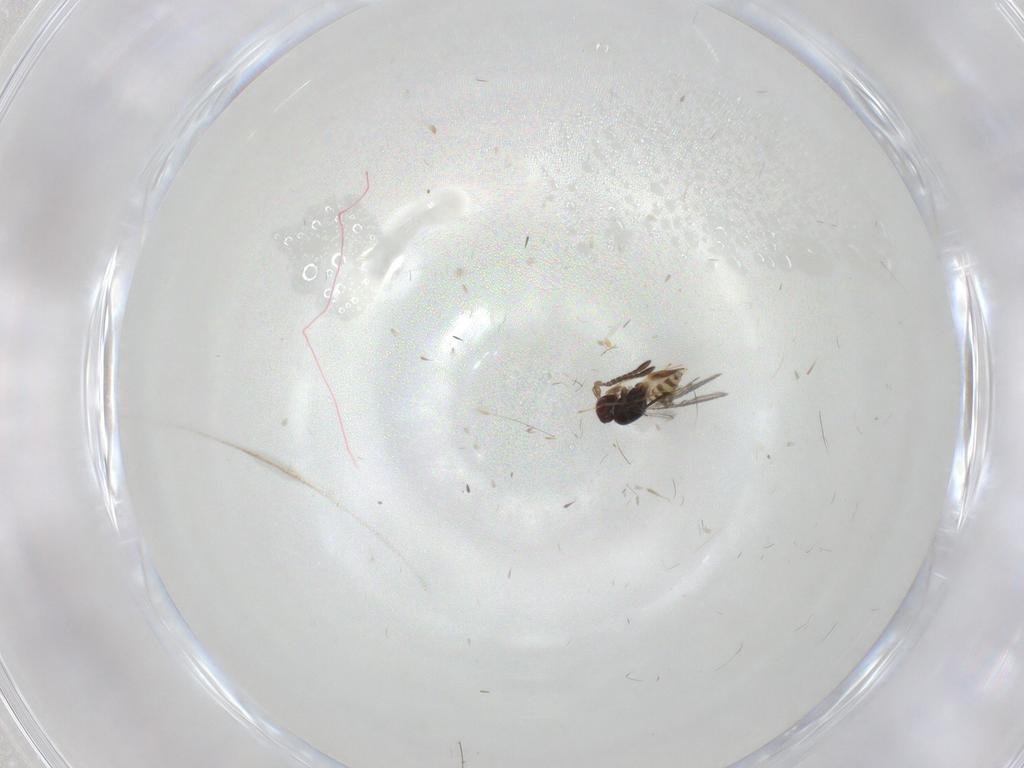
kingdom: Animalia
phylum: Arthropoda
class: Insecta
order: Hymenoptera
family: Mymaridae
